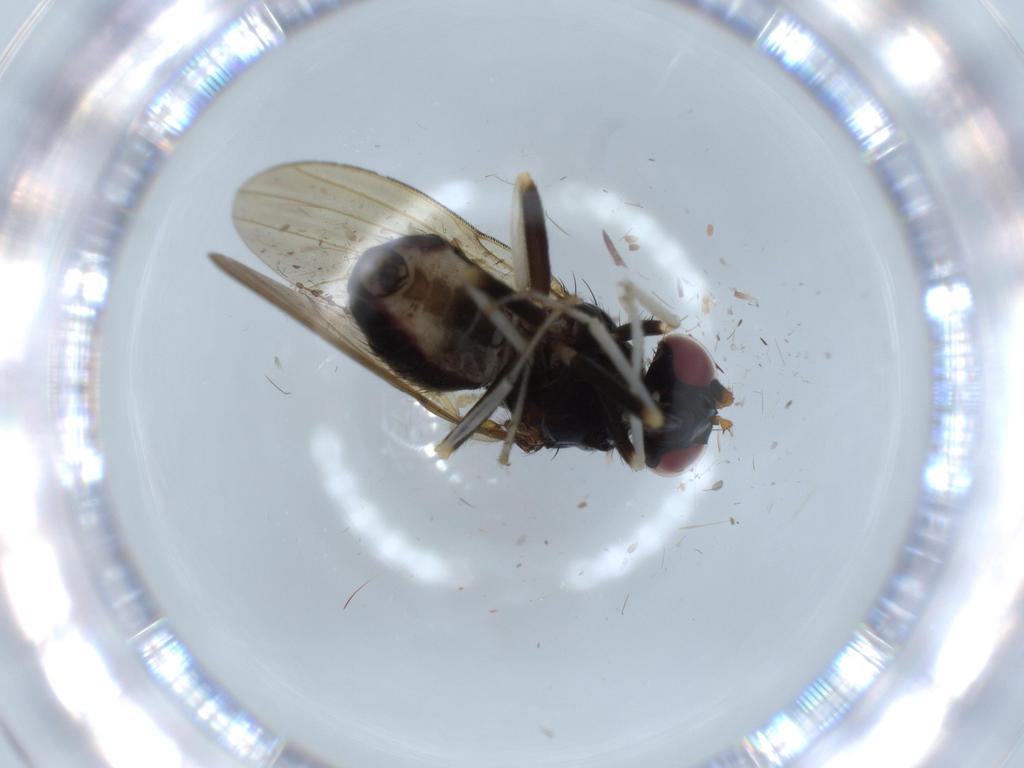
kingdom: Animalia
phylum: Arthropoda
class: Insecta
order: Diptera
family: Cecidomyiidae
